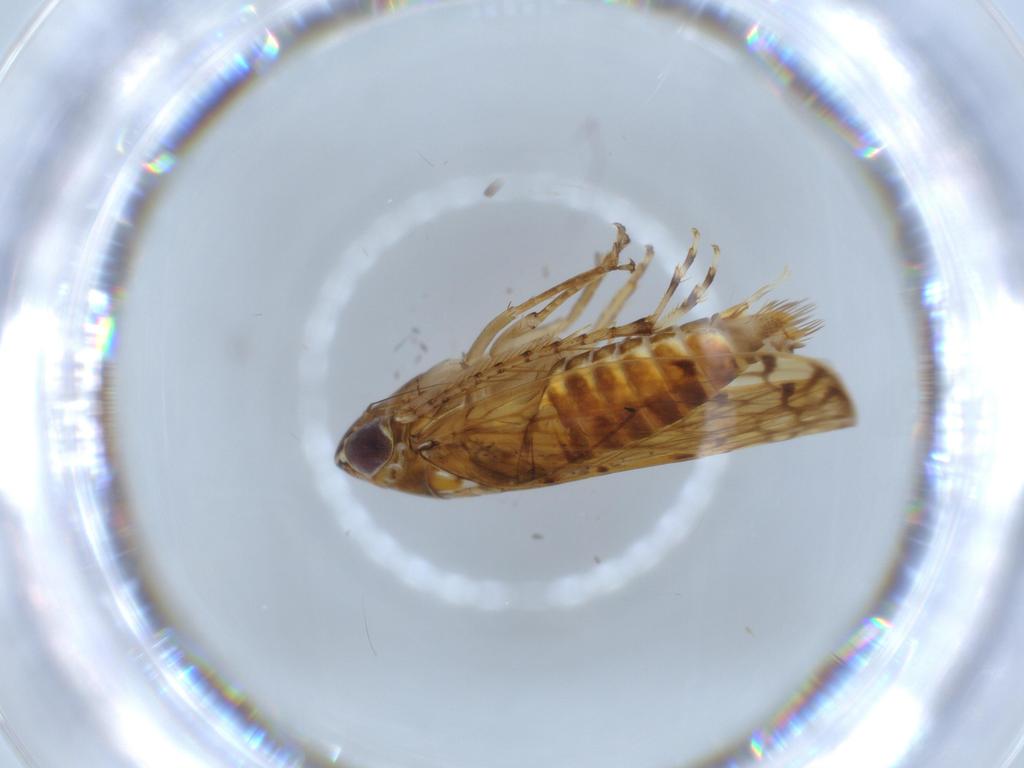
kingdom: Animalia
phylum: Arthropoda
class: Insecta
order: Hemiptera
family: Cicadellidae
